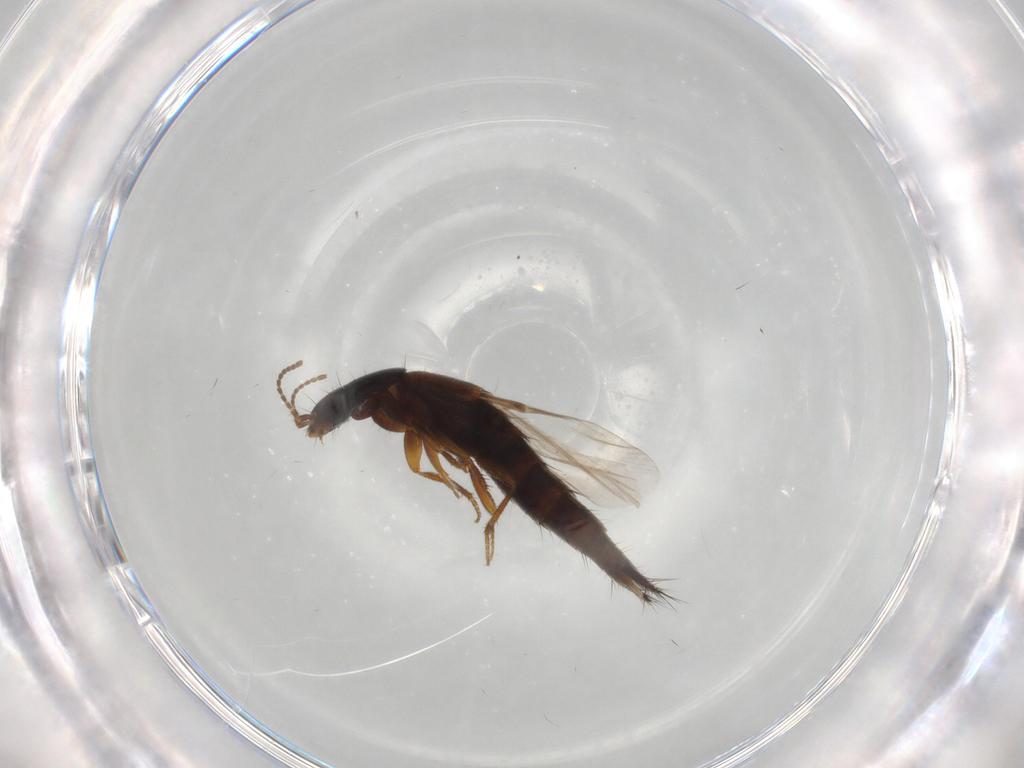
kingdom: Animalia
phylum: Arthropoda
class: Insecta
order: Coleoptera
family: Staphylinidae
